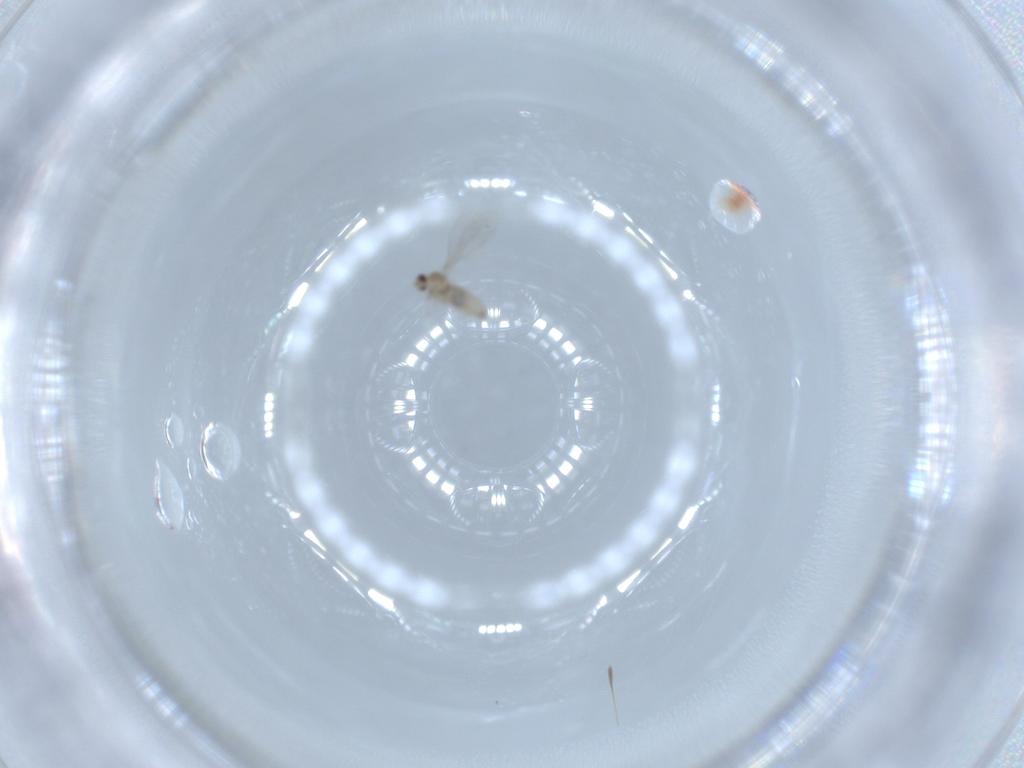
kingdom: Animalia
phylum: Arthropoda
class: Insecta
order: Diptera
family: Cecidomyiidae
